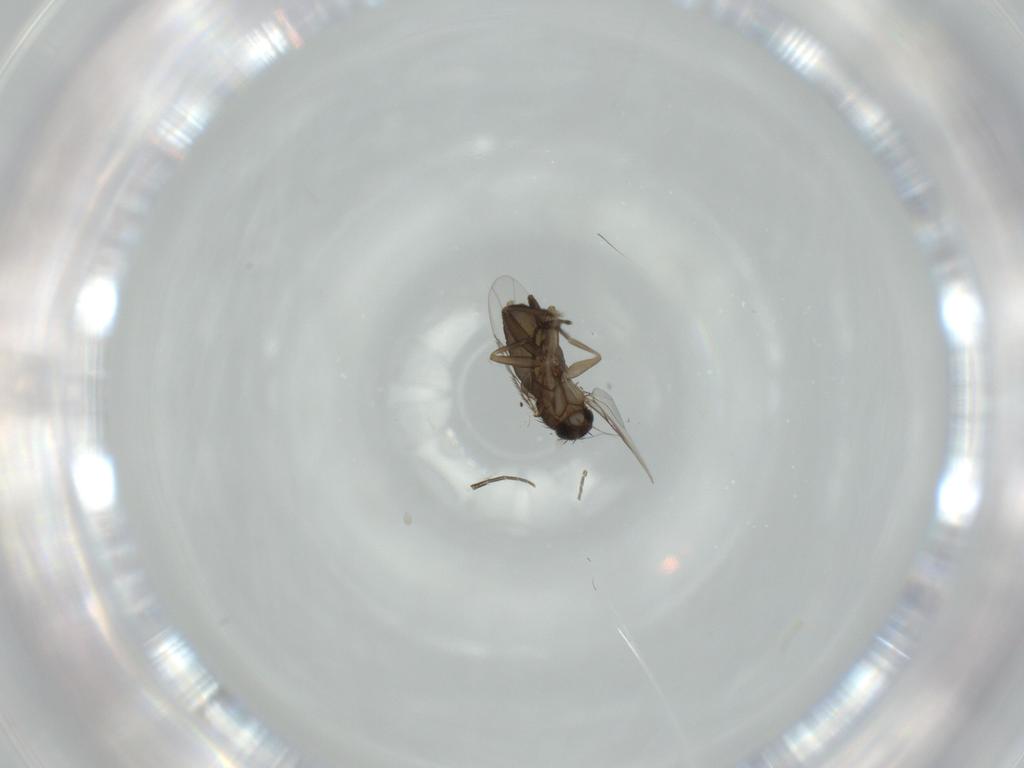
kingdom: Animalia
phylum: Arthropoda
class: Insecta
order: Diptera
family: Phoridae
